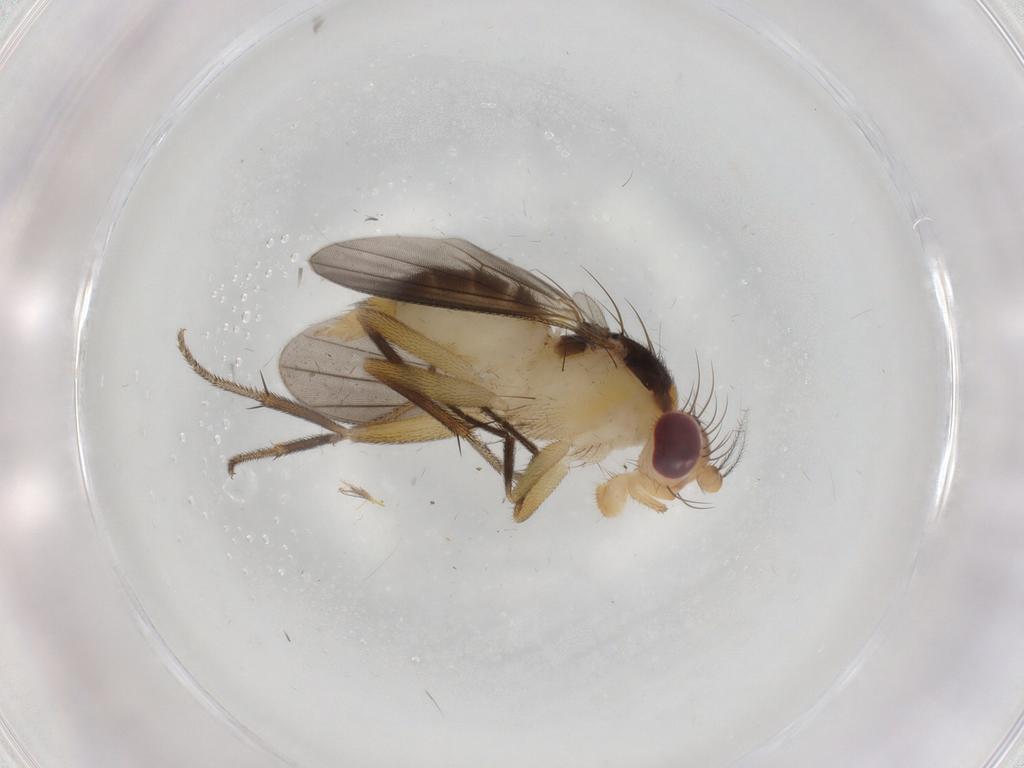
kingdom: Animalia
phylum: Arthropoda
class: Insecta
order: Diptera
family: Clusiidae
